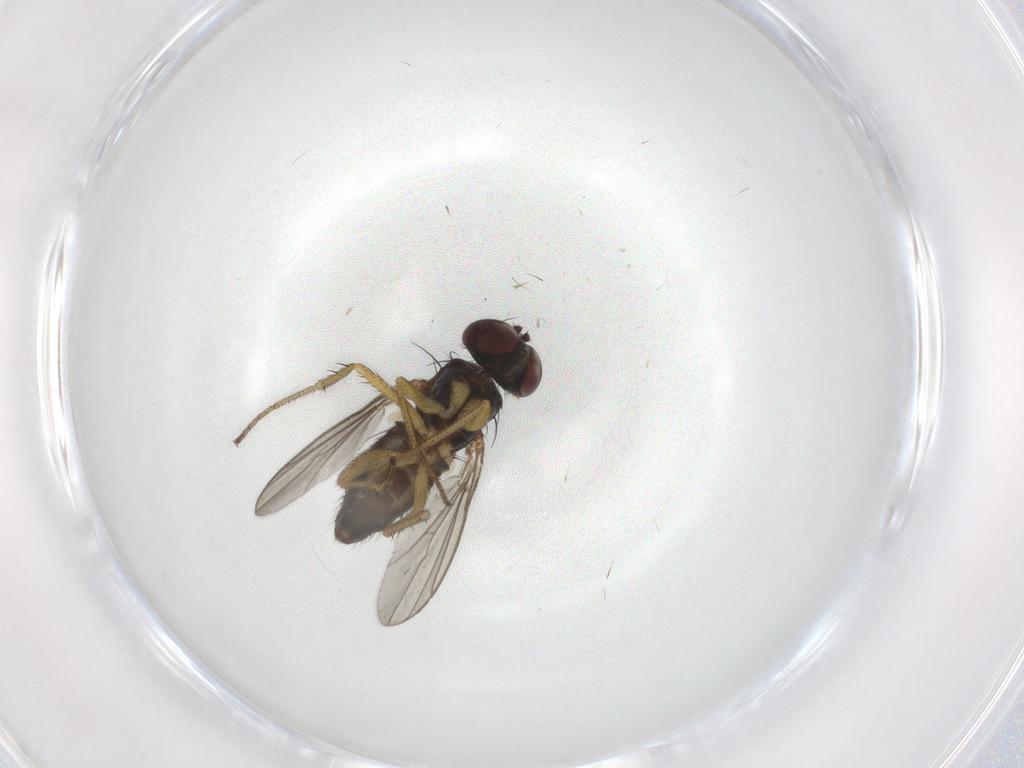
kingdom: Animalia
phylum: Arthropoda
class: Insecta
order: Diptera
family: Dolichopodidae
